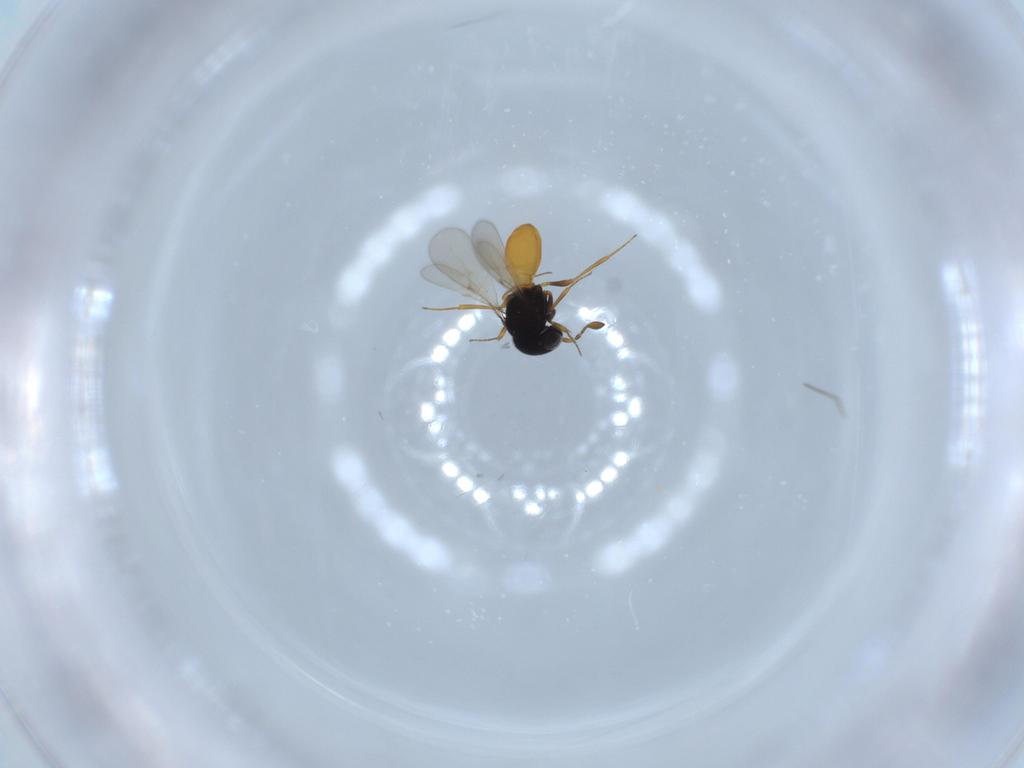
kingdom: Animalia
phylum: Arthropoda
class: Insecta
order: Hymenoptera
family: Scelionidae
